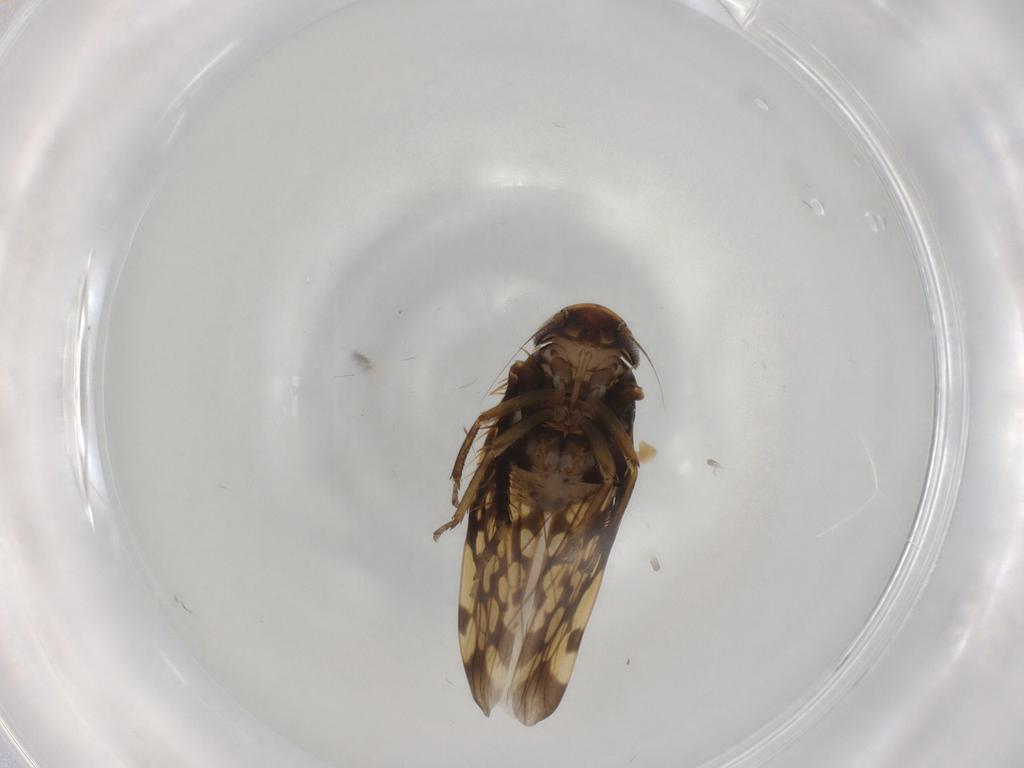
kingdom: Animalia
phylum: Arthropoda
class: Insecta
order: Hemiptera
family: Cicadellidae
